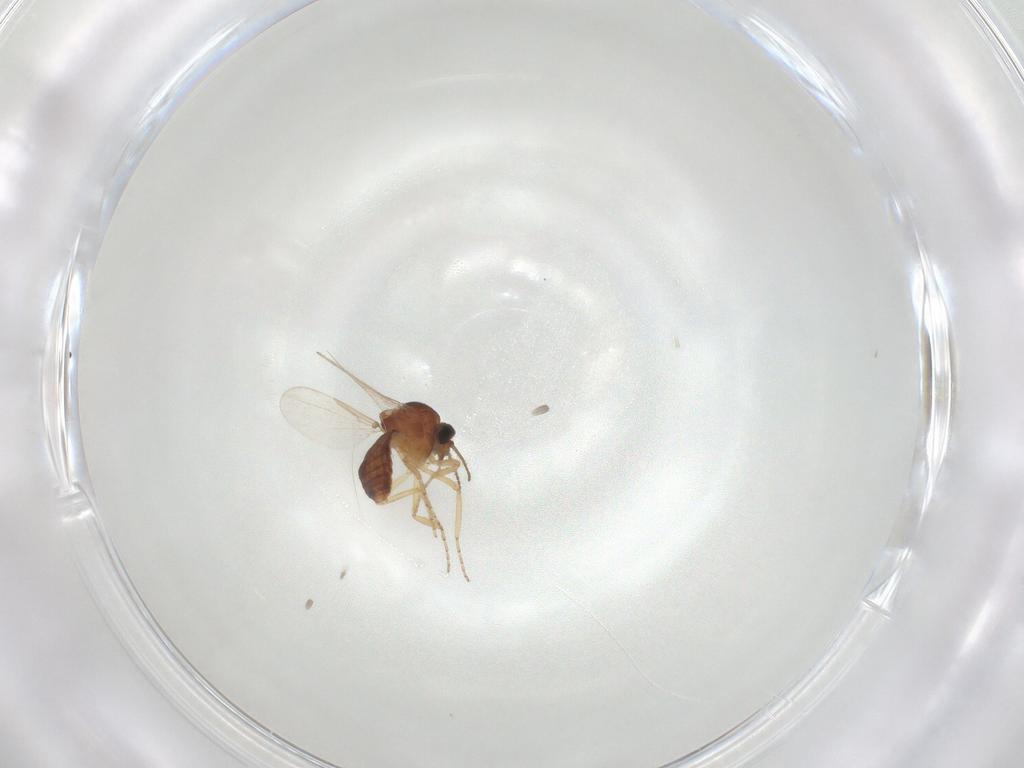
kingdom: Animalia
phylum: Arthropoda
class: Insecta
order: Diptera
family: Ceratopogonidae
